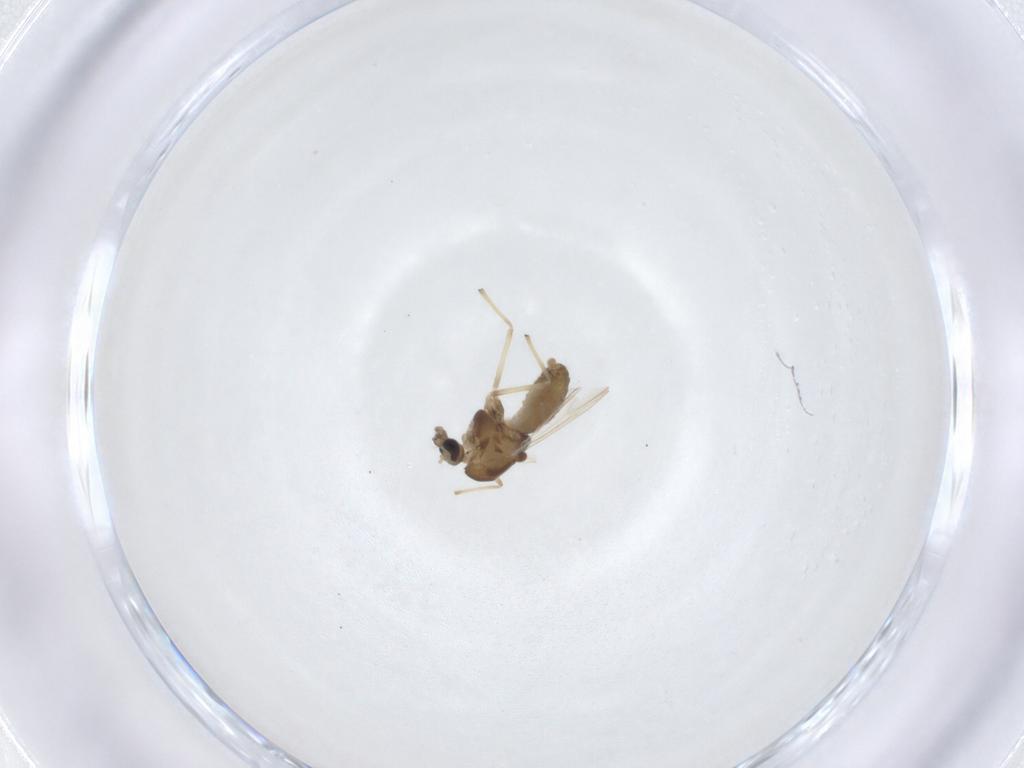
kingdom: Animalia
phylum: Arthropoda
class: Insecta
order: Diptera
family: Chironomidae
